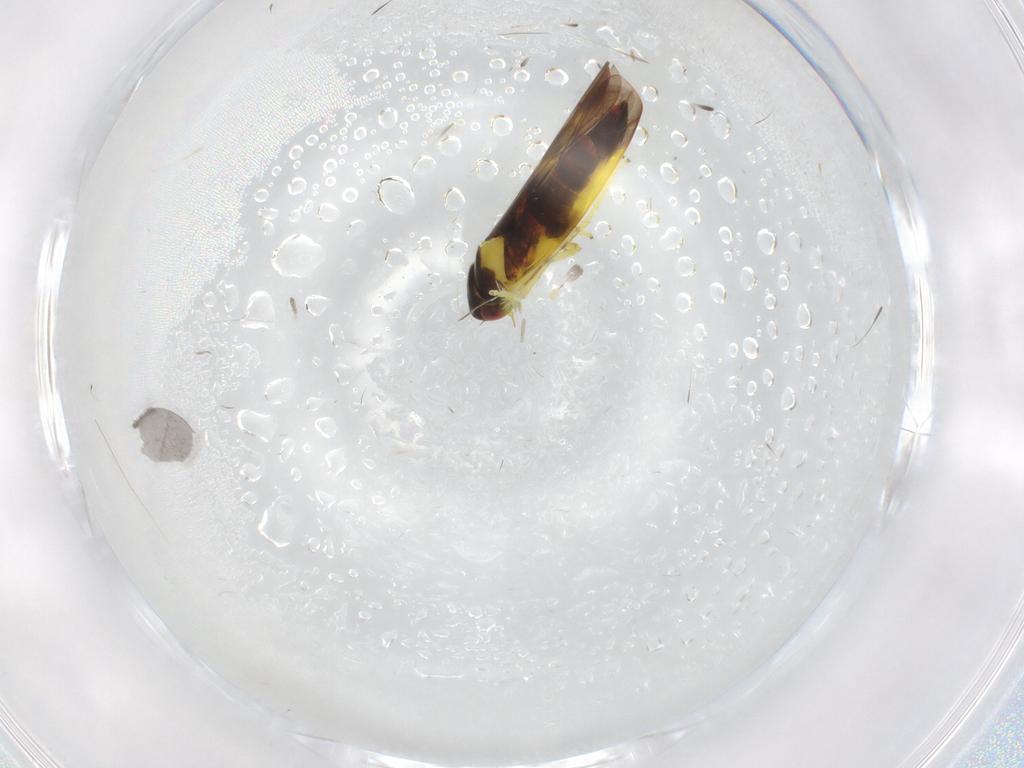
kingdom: Animalia
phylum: Arthropoda
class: Insecta
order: Hemiptera
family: Cicadellidae
